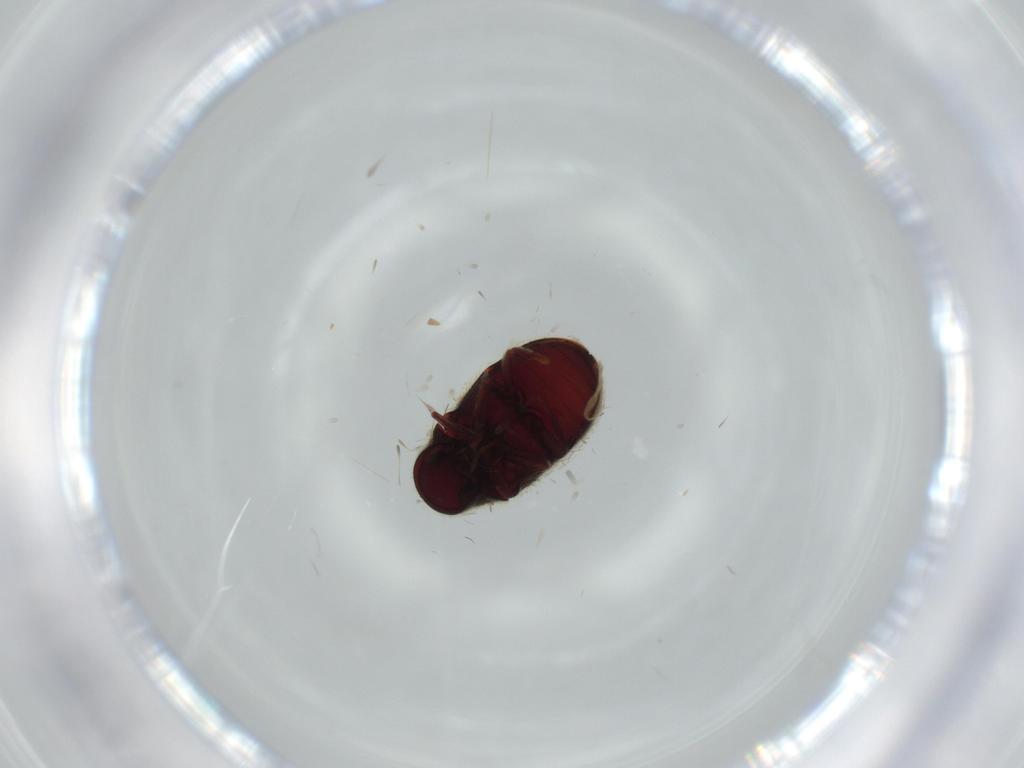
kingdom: Animalia
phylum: Arthropoda
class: Insecta
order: Coleoptera
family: Ptinidae
